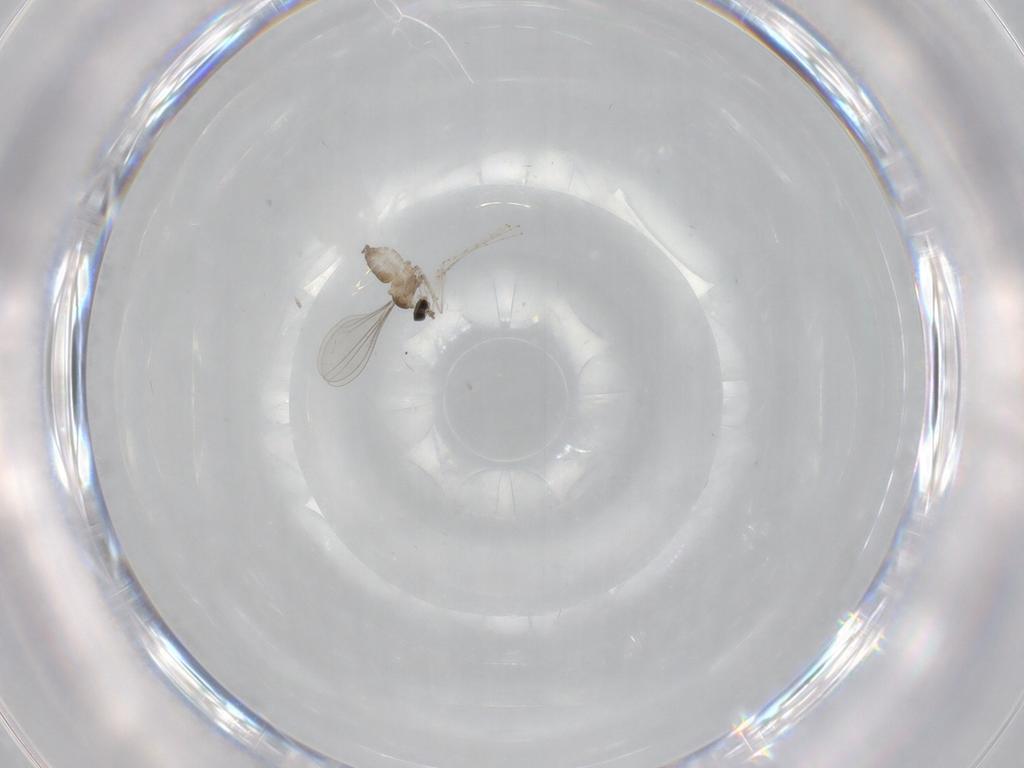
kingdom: Animalia
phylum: Arthropoda
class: Insecta
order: Diptera
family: Cecidomyiidae
